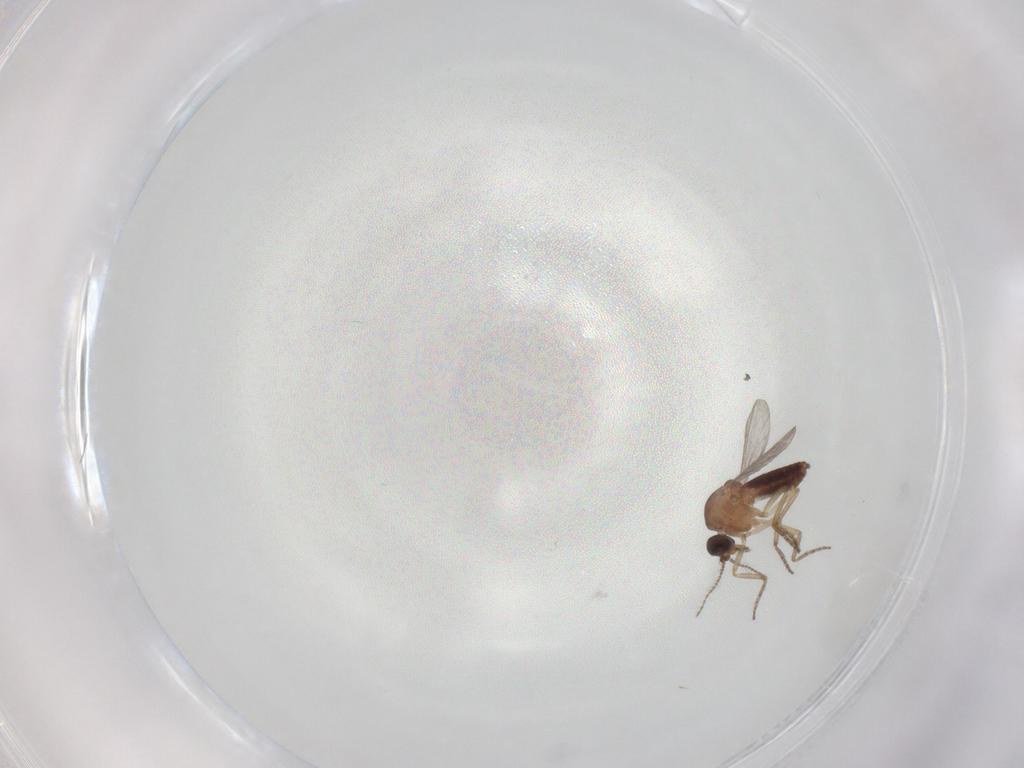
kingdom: Animalia
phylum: Arthropoda
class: Insecta
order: Diptera
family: Ceratopogonidae
